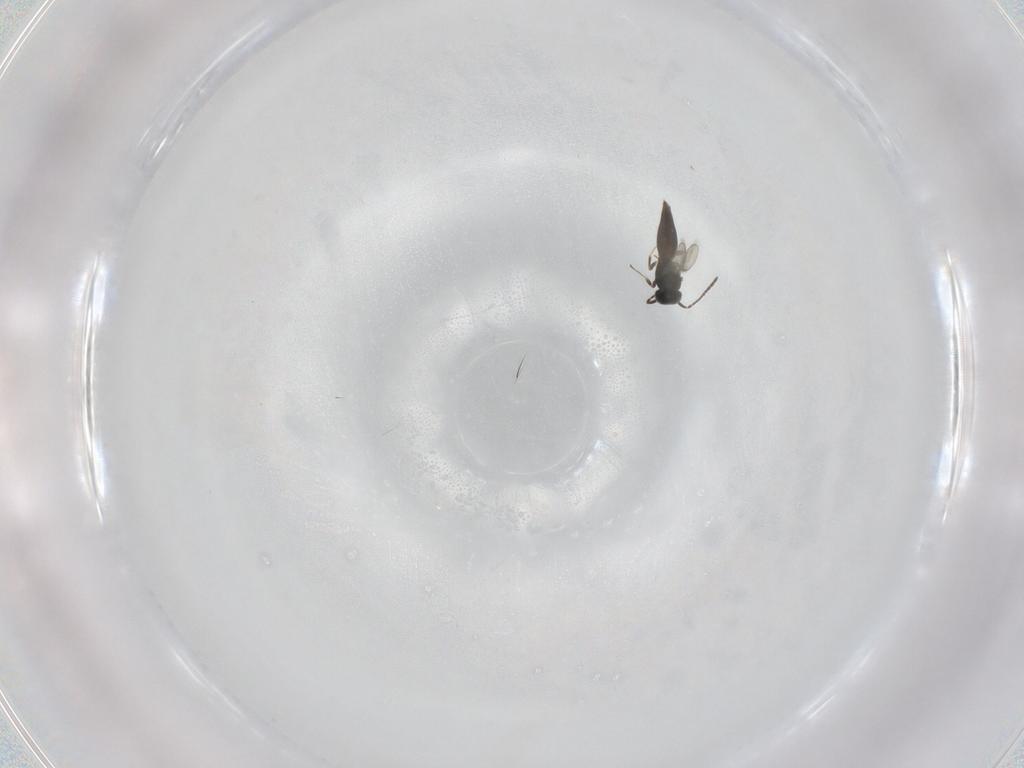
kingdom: Animalia
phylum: Arthropoda
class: Insecta
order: Hymenoptera
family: Scelionidae
